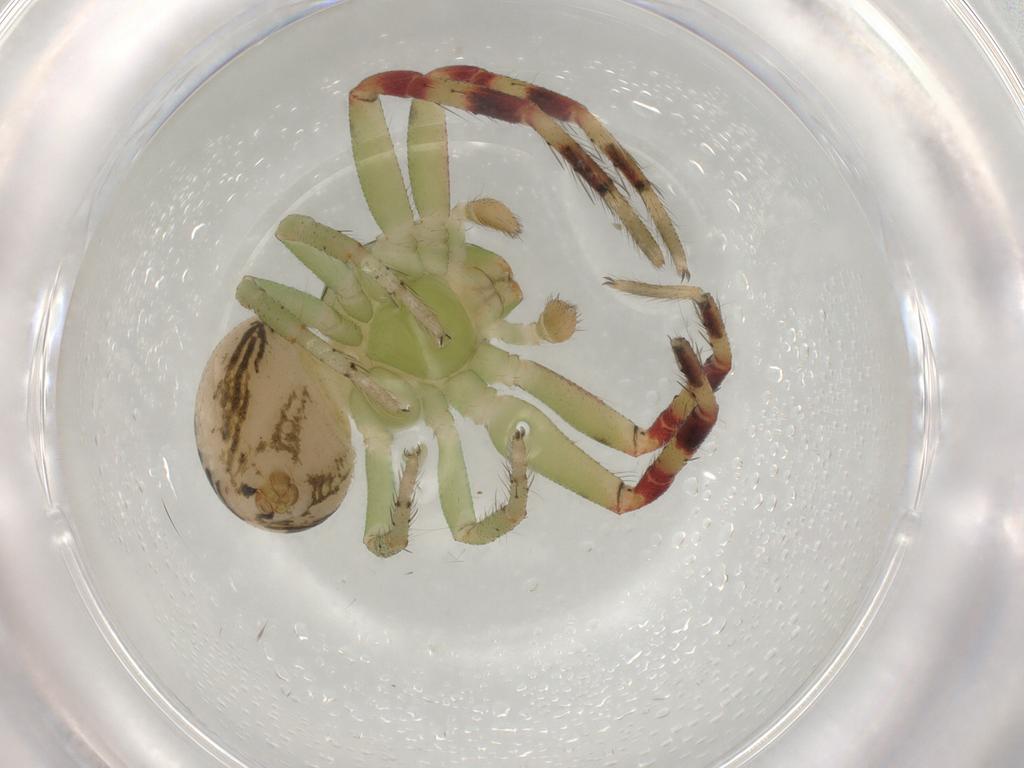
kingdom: Animalia
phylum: Arthropoda
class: Arachnida
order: Araneae
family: Thomisidae
